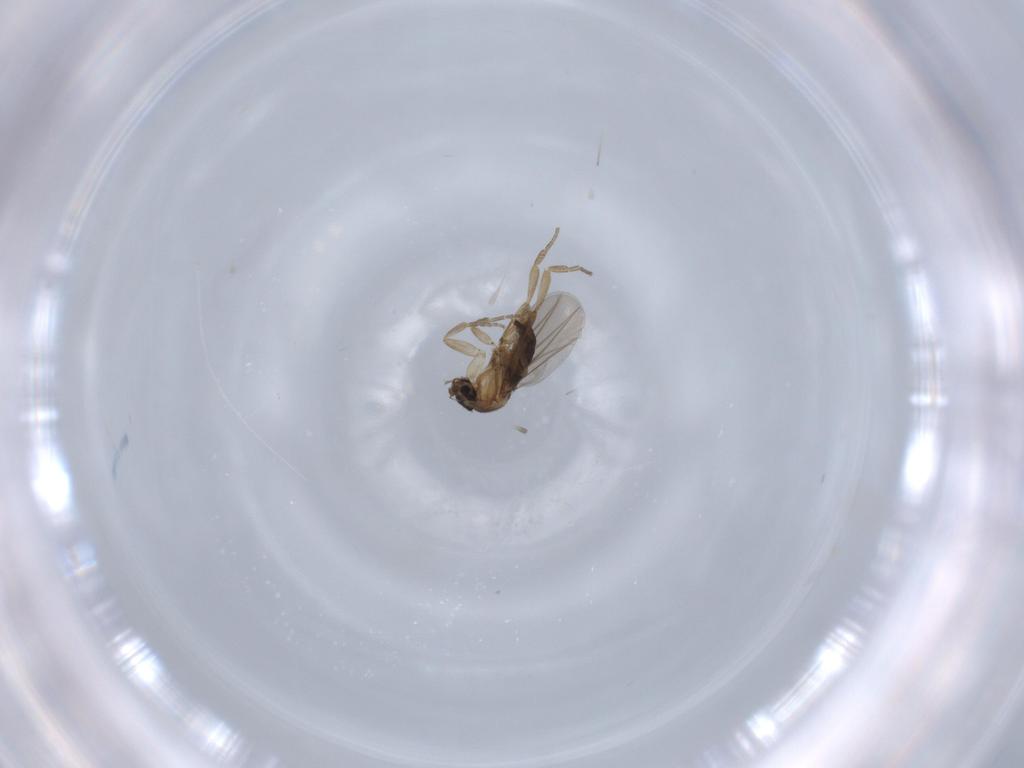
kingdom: Animalia
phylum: Arthropoda
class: Insecta
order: Diptera
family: Phoridae
